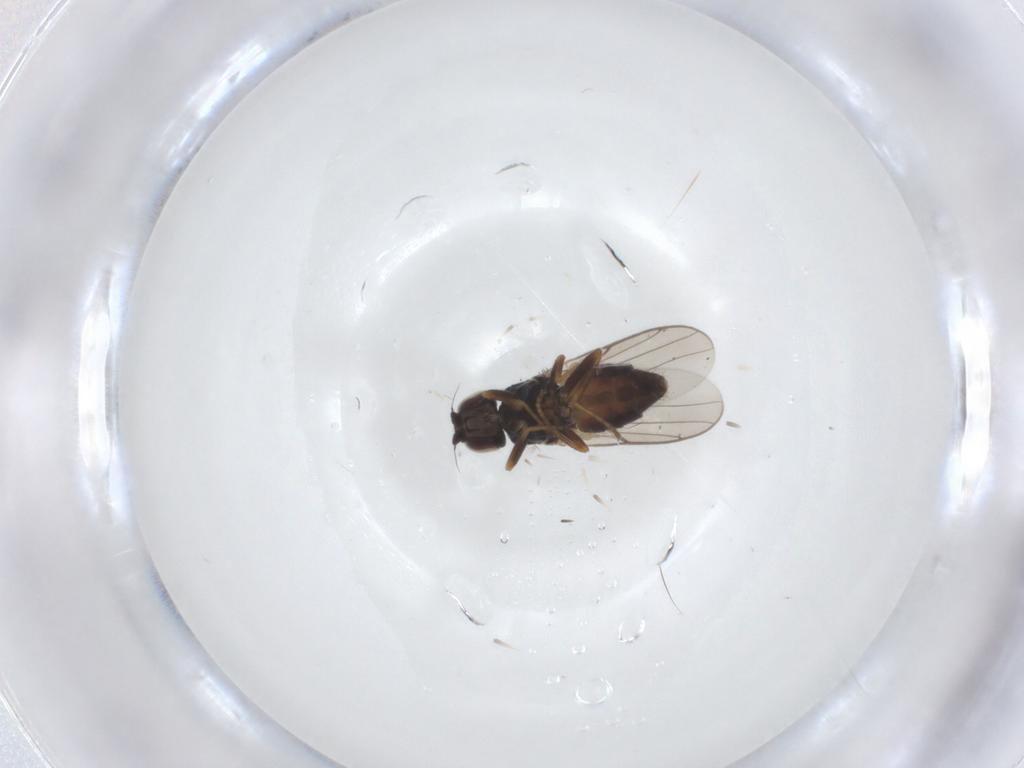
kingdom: Animalia
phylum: Arthropoda
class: Insecta
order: Diptera
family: Chloropidae
